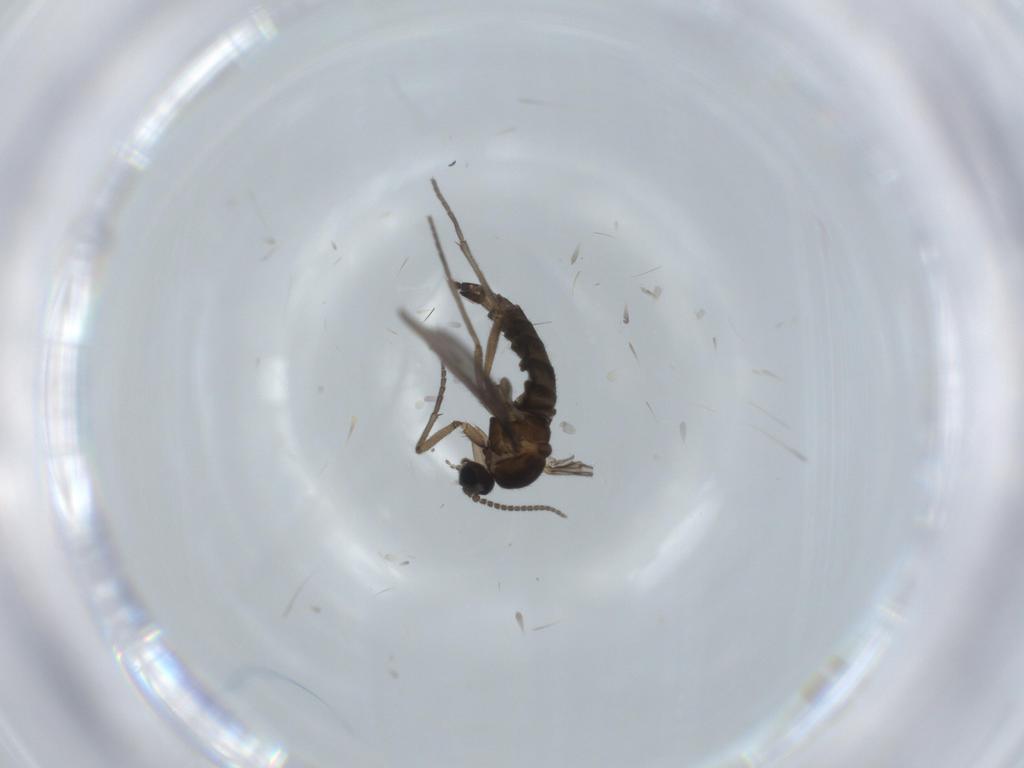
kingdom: Animalia
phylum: Arthropoda
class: Insecta
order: Diptera
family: Sciaridae
